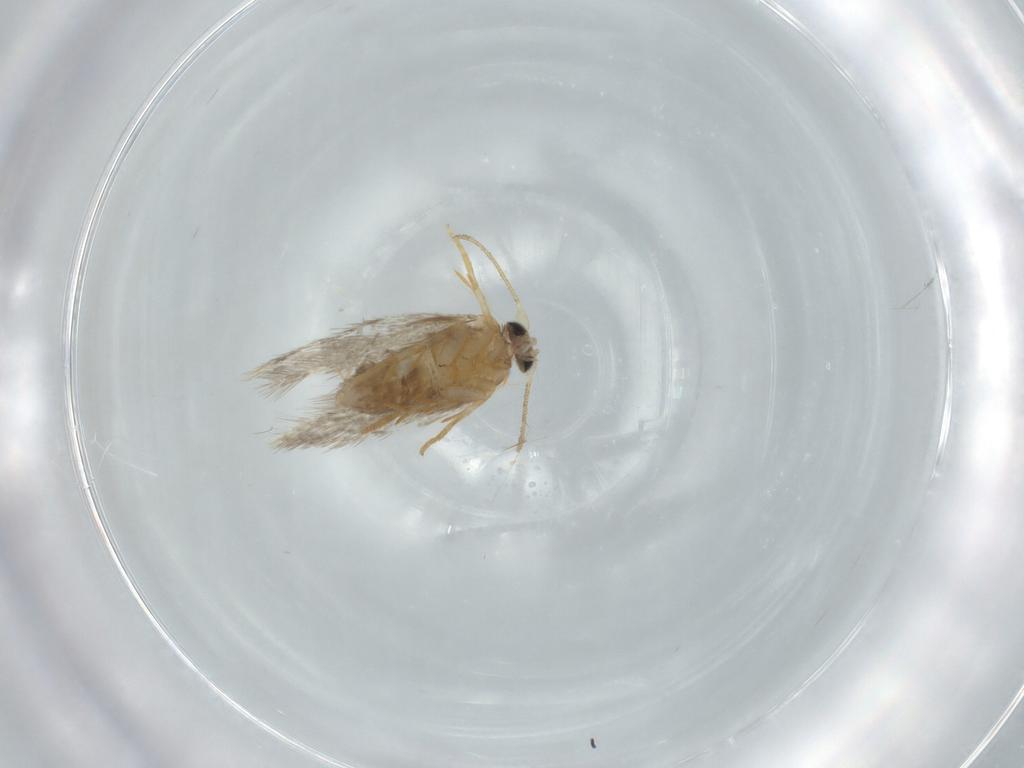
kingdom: Animalia
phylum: Arthropoda
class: Insecta
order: Lepidoptera
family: Nepticulidae
